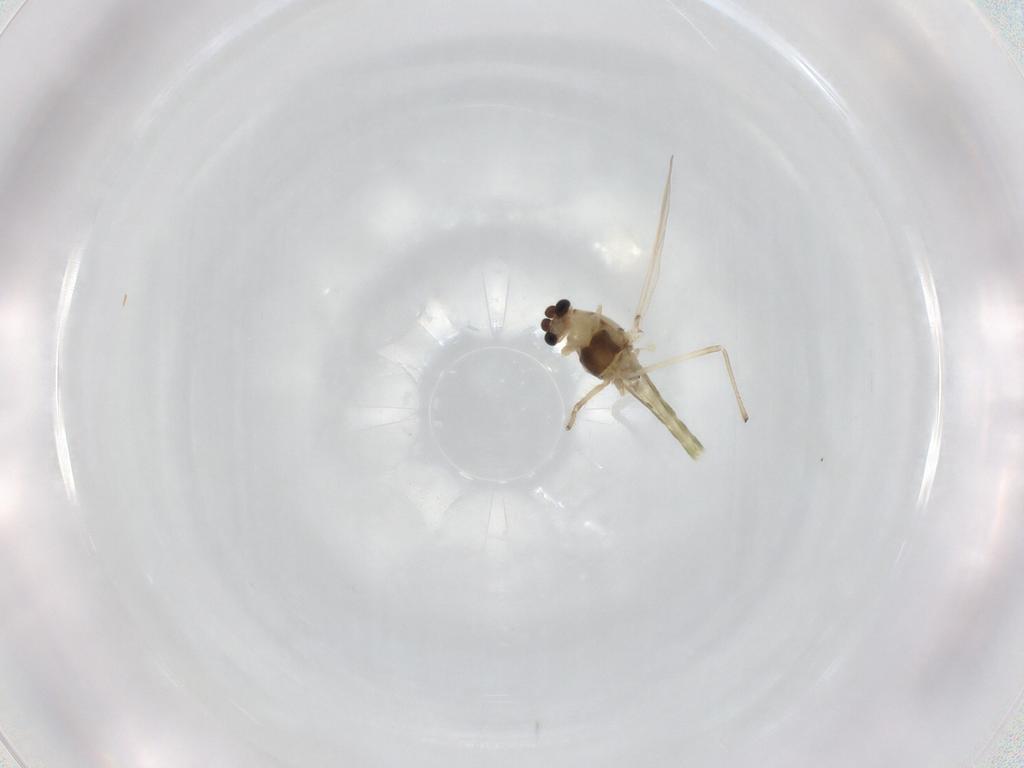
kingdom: Animalia
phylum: Arthropoda
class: Insecta
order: Diptera
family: Chironomidae
